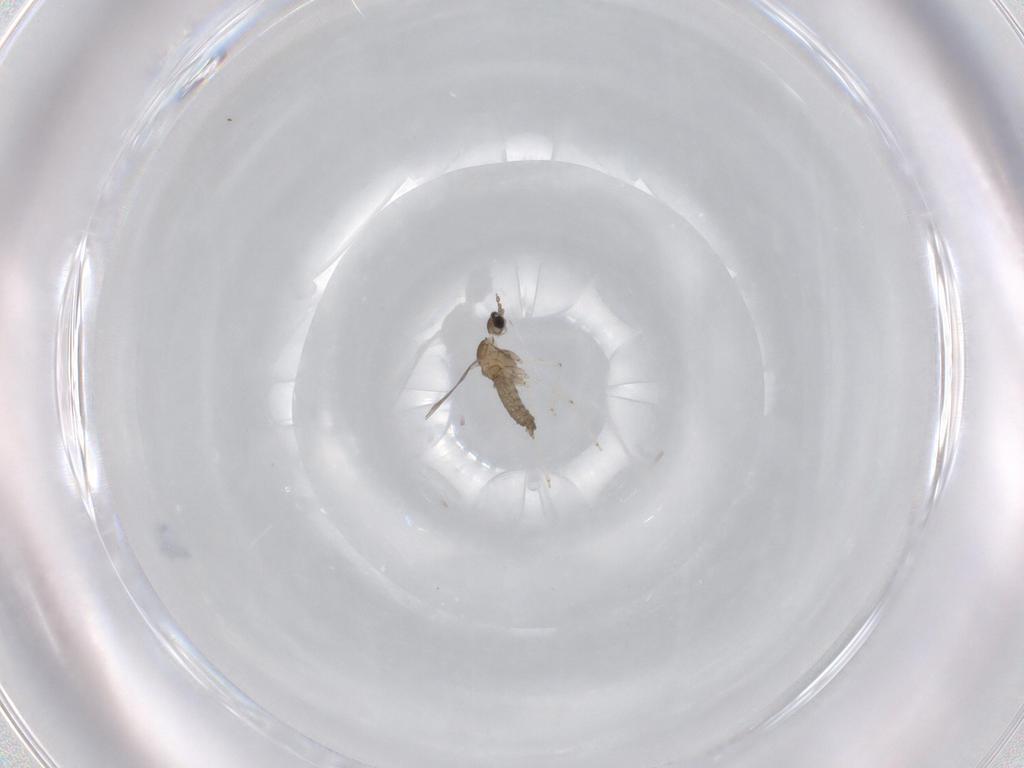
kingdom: Animalia
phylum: Arthropoda
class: Insecta
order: Diptera
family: Cecidomyiidae
